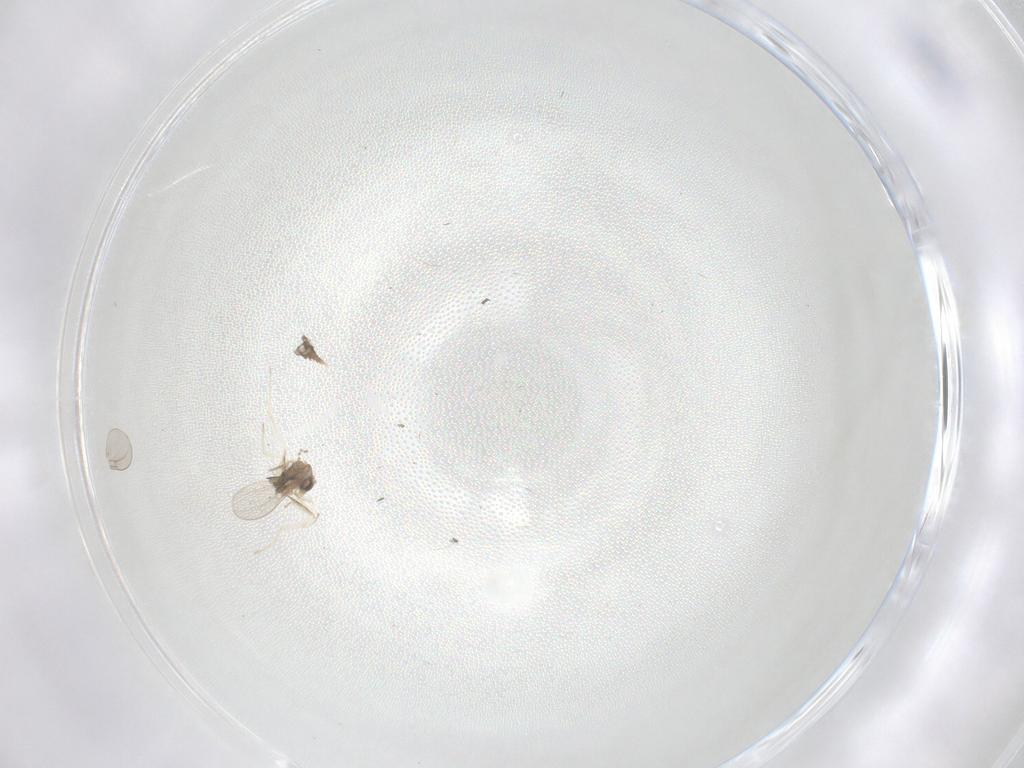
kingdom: Animalia
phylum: Arthropoda
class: Insecta
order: Diptera
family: Cecidomyiidae
